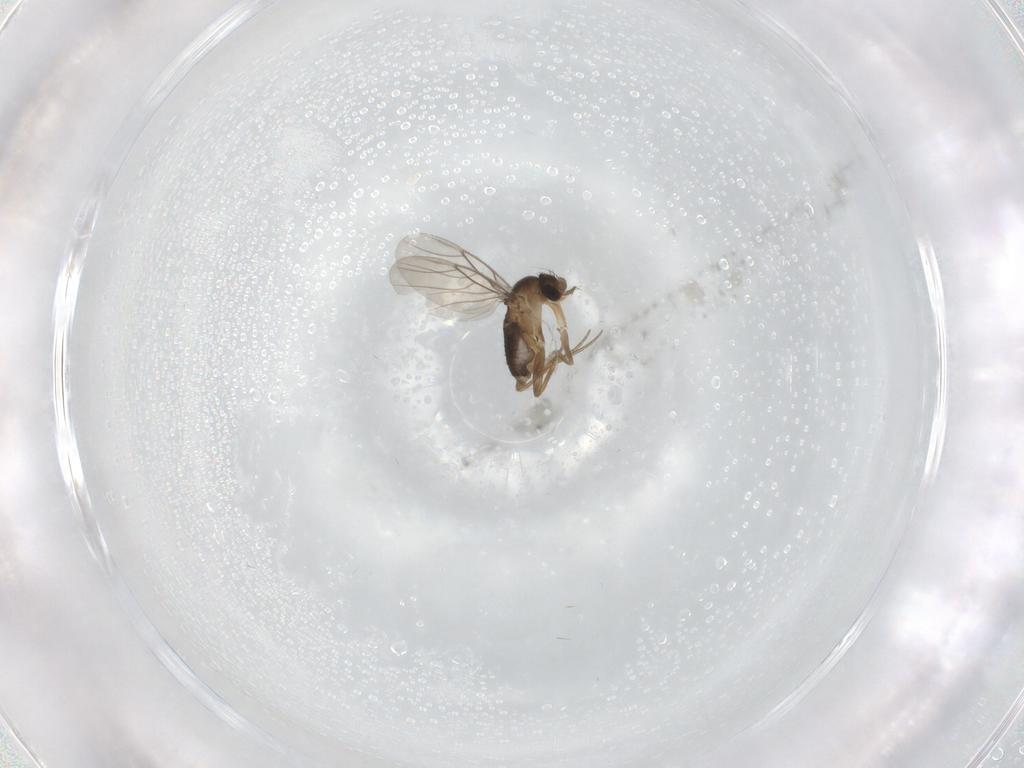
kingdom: Animalia
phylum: Arthropoda
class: Insecta
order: Diptera
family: Phoridae
